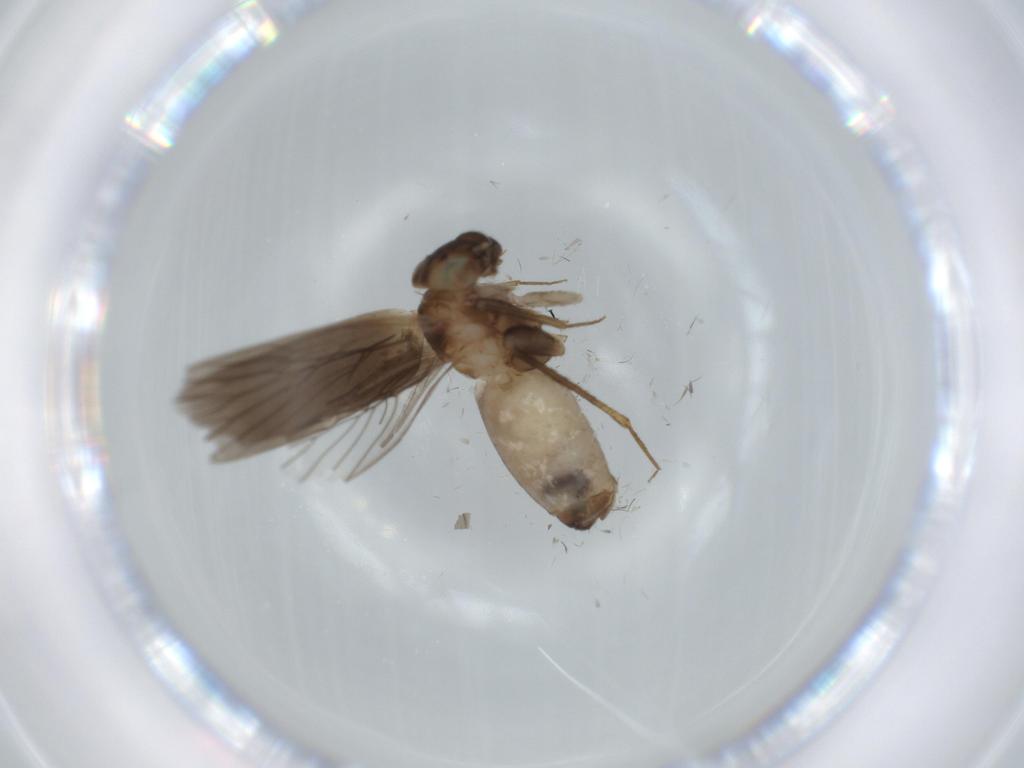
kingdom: Animalia
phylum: Arthropoda
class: Insecta
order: Psocodea
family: Lepidopsocidae
